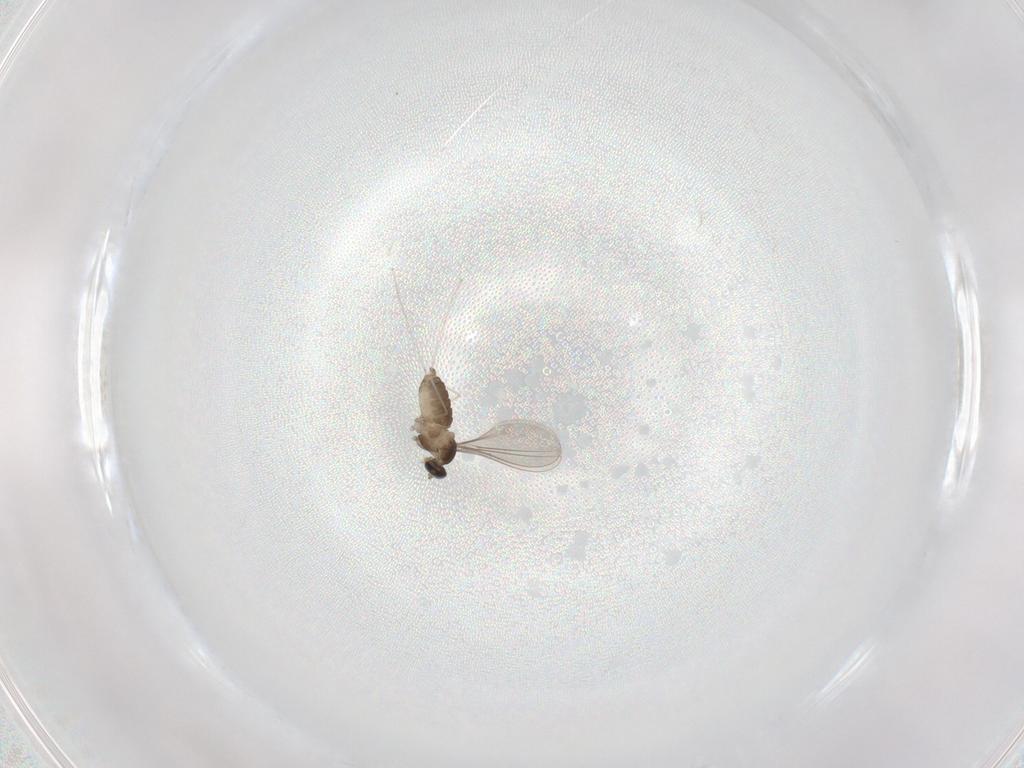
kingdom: Animalia
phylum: Arthropoda
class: Insecta
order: Diptera
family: Cecidomyiidae
